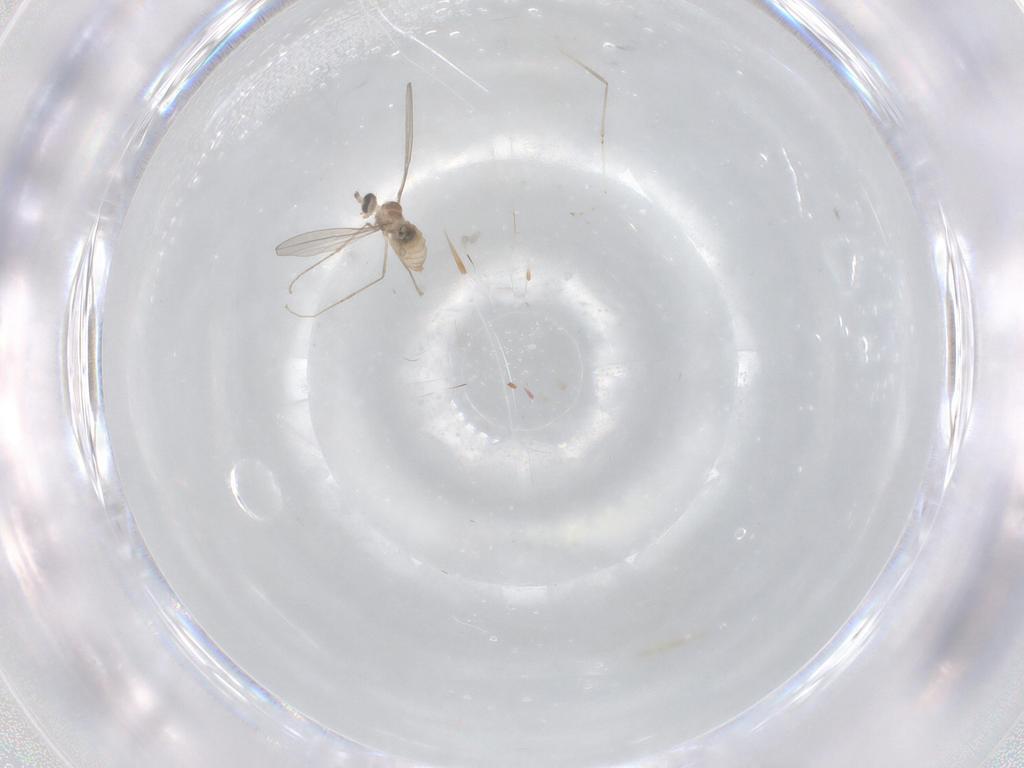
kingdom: Animalia
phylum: Arthropoda
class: Insecta
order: Diptera
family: Cecidomyiidae
